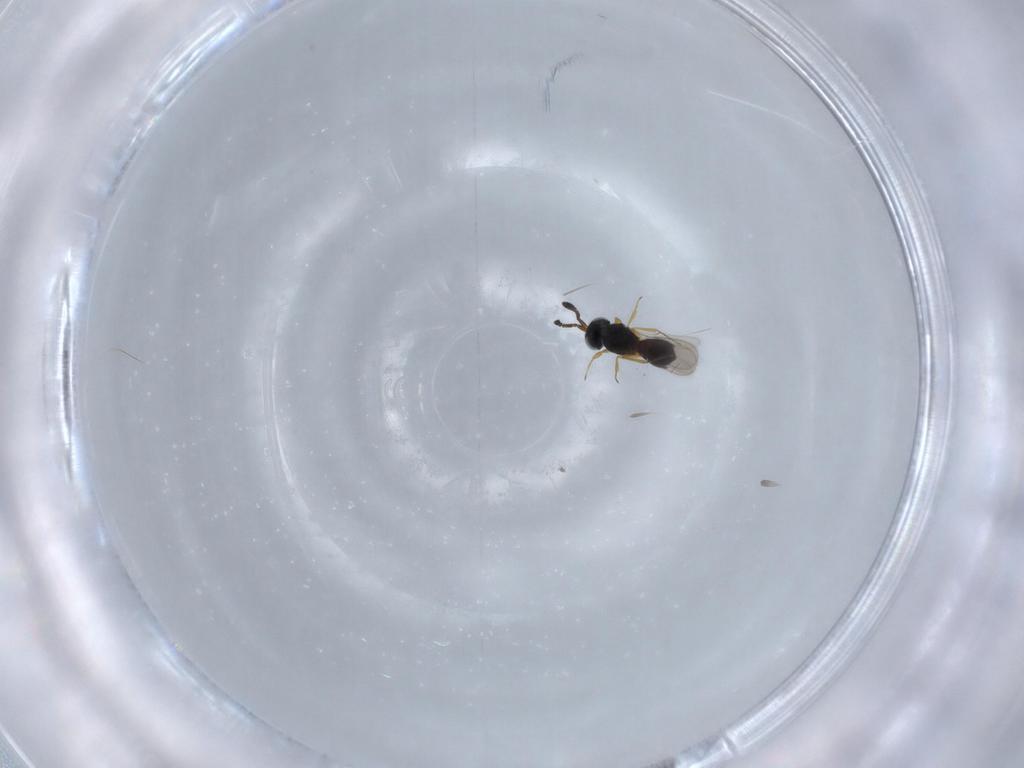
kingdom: Animalia
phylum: Arthropoda
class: Insecta
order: Hymenoptera
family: Scelionidae
